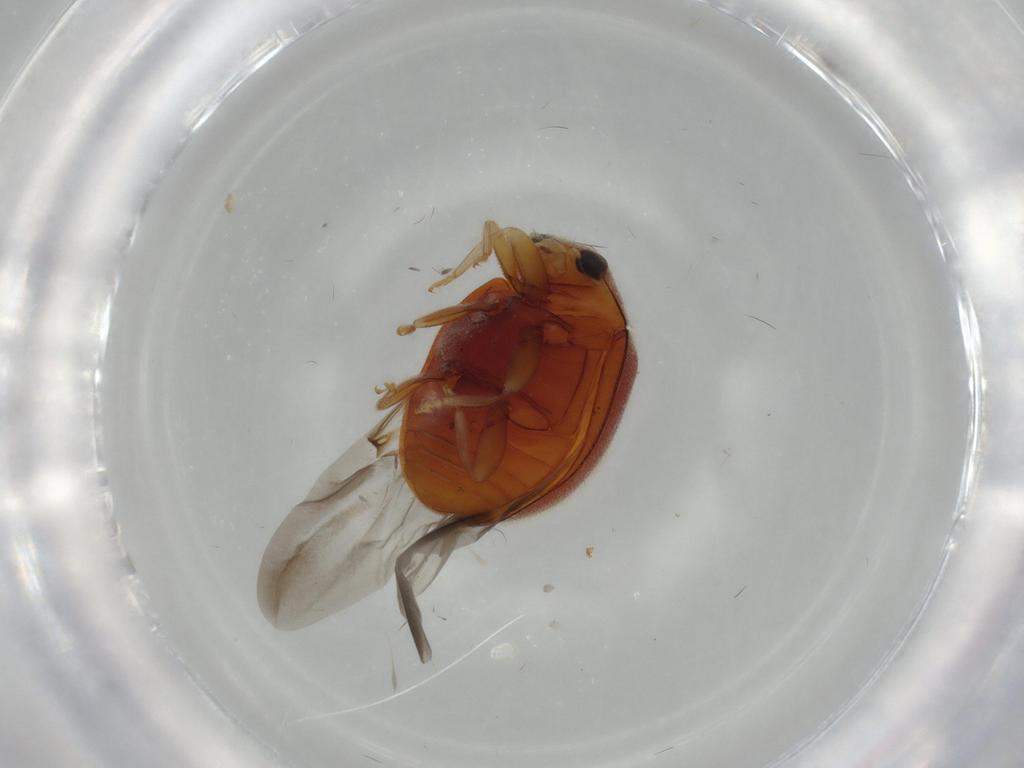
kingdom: Animalia
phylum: Arthropoda
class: Insecta
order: Coleoptera
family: Coccinellidae
